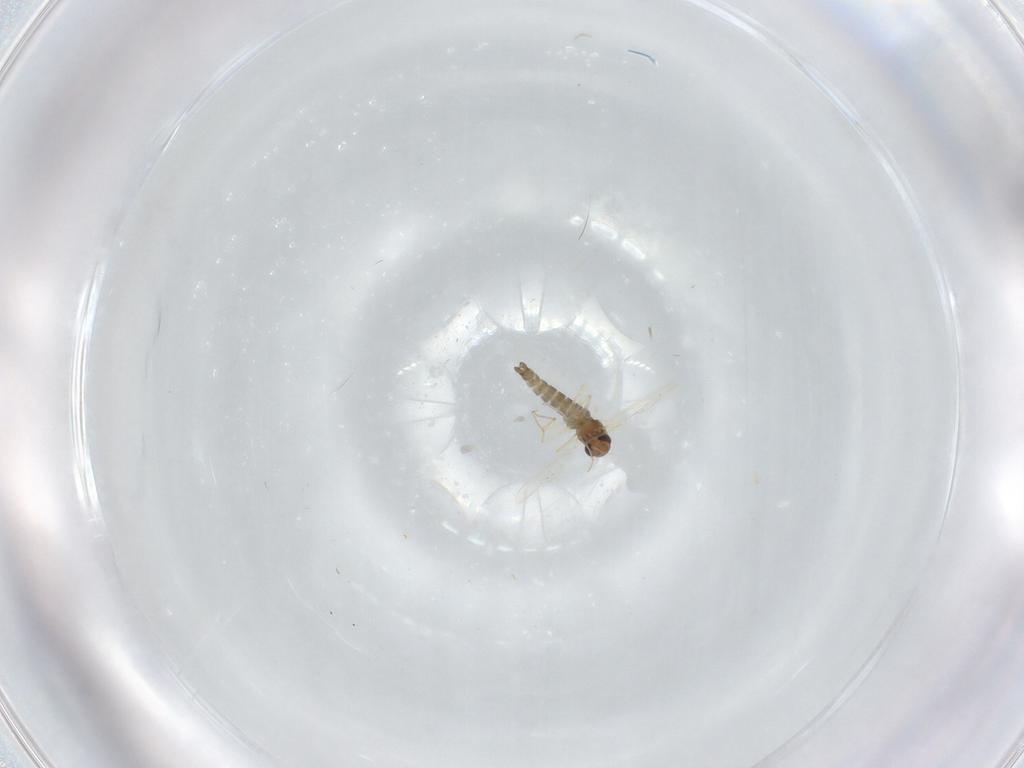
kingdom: Animalia
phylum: Arthropoda
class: Insecta
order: Diptera
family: Chironomidae
